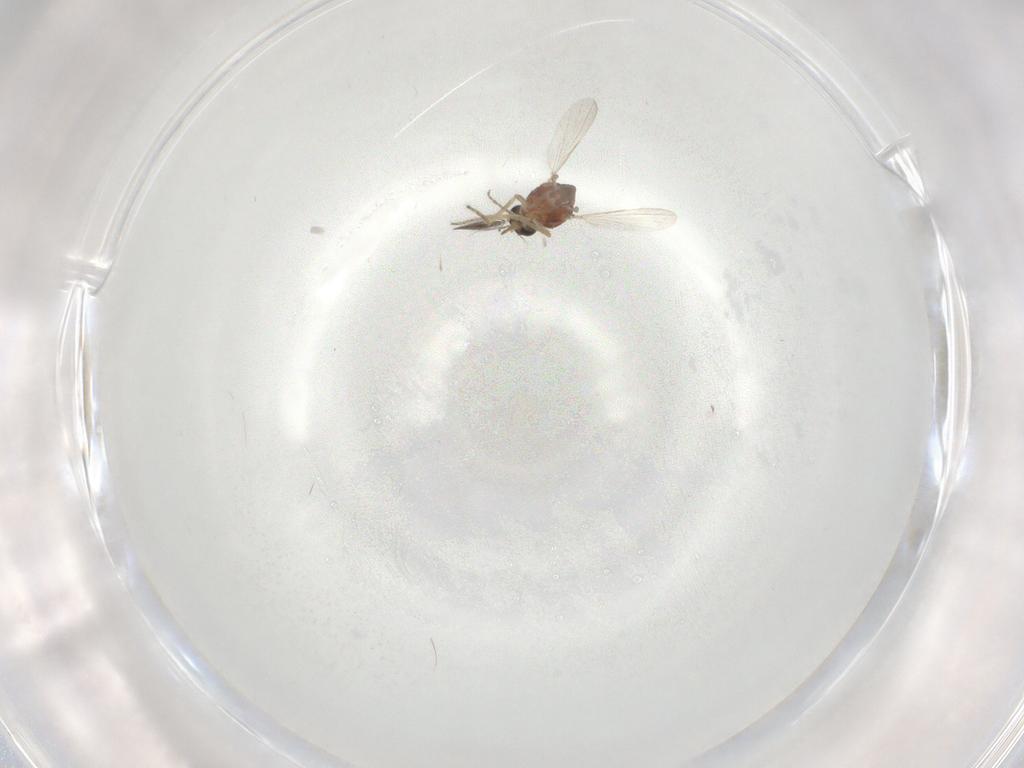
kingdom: Animalia
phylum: Arthropoda
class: Insecta
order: Diptera
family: Ceratopogonidae
